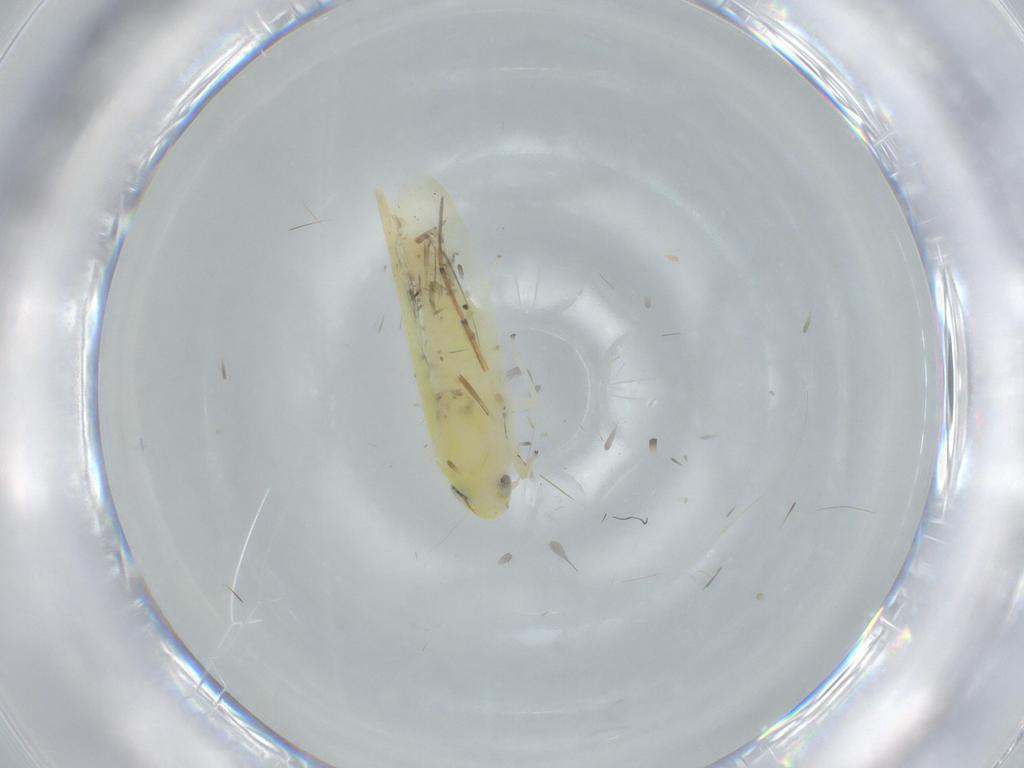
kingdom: Animalia
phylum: Arthropoda
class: Insecta
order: Hemiptera
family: Cicadellidae
